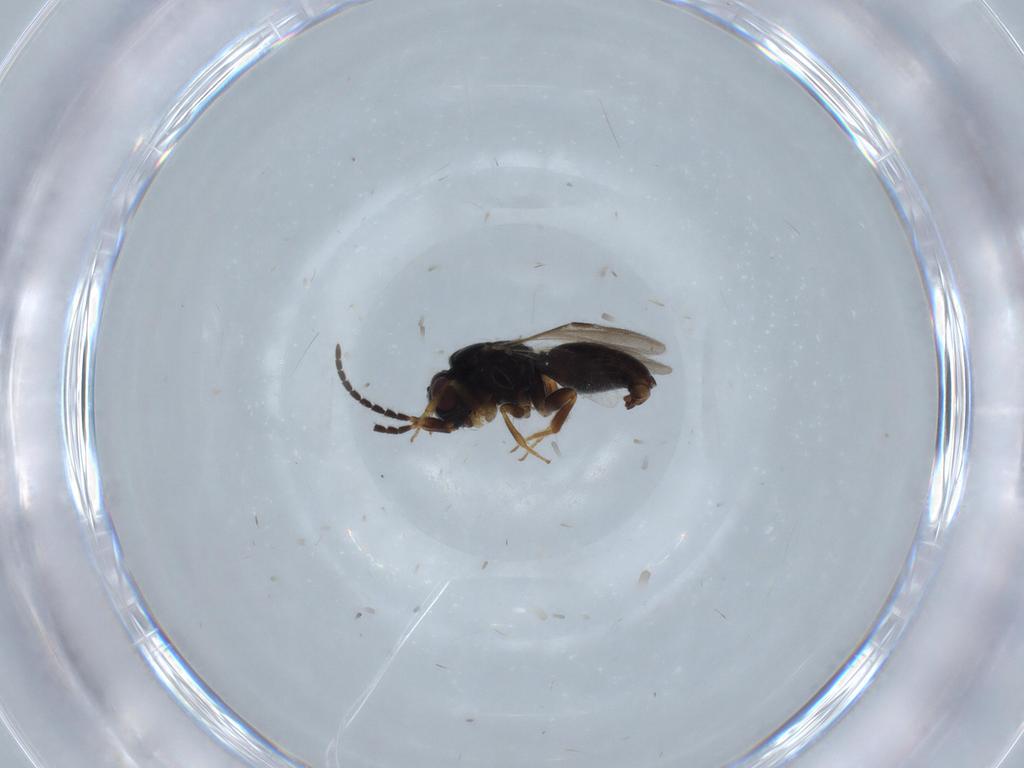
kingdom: Animalia
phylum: Arthropoda
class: Insecta
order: Hymenoptera
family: Megaspilidae
